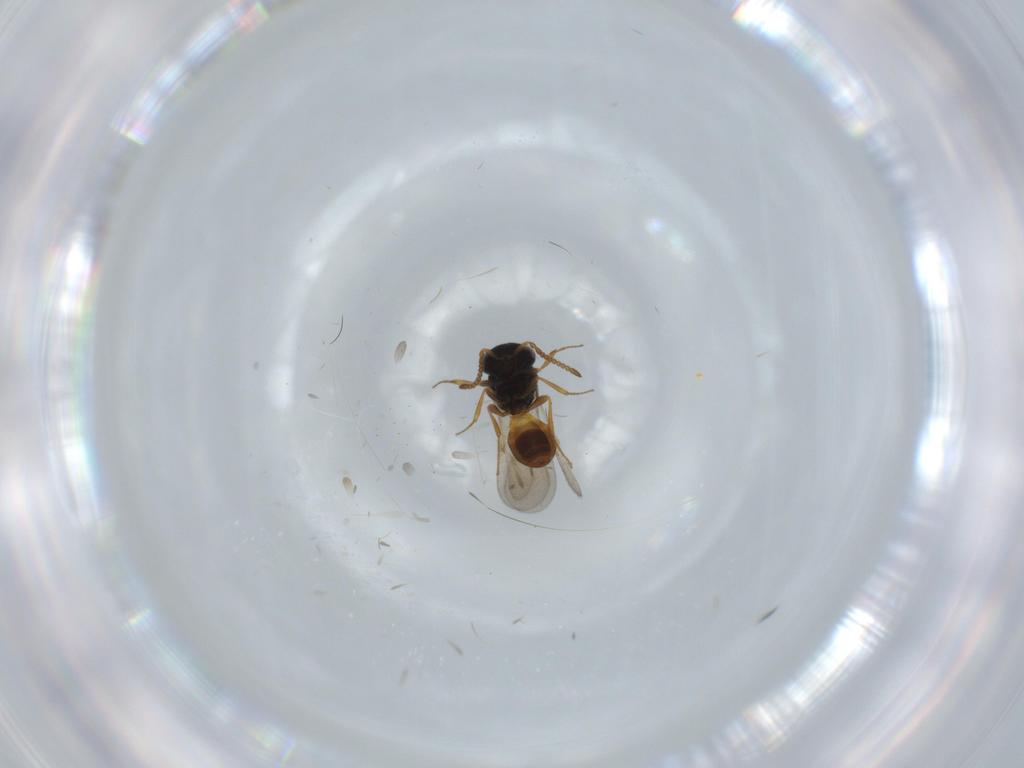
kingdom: Animalia
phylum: Arthropoda
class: Insecta
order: Hymenoptera
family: Scelionidae
